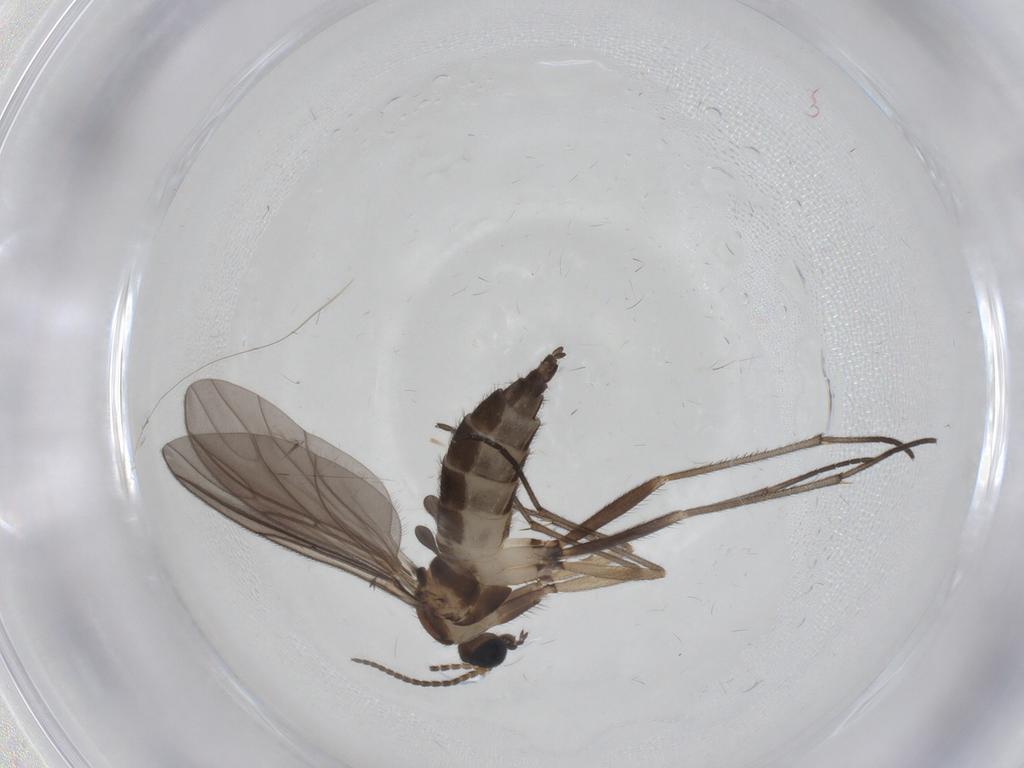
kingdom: Animalia
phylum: Arthropoda
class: Insecta
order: Diptera
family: Sciaridae
